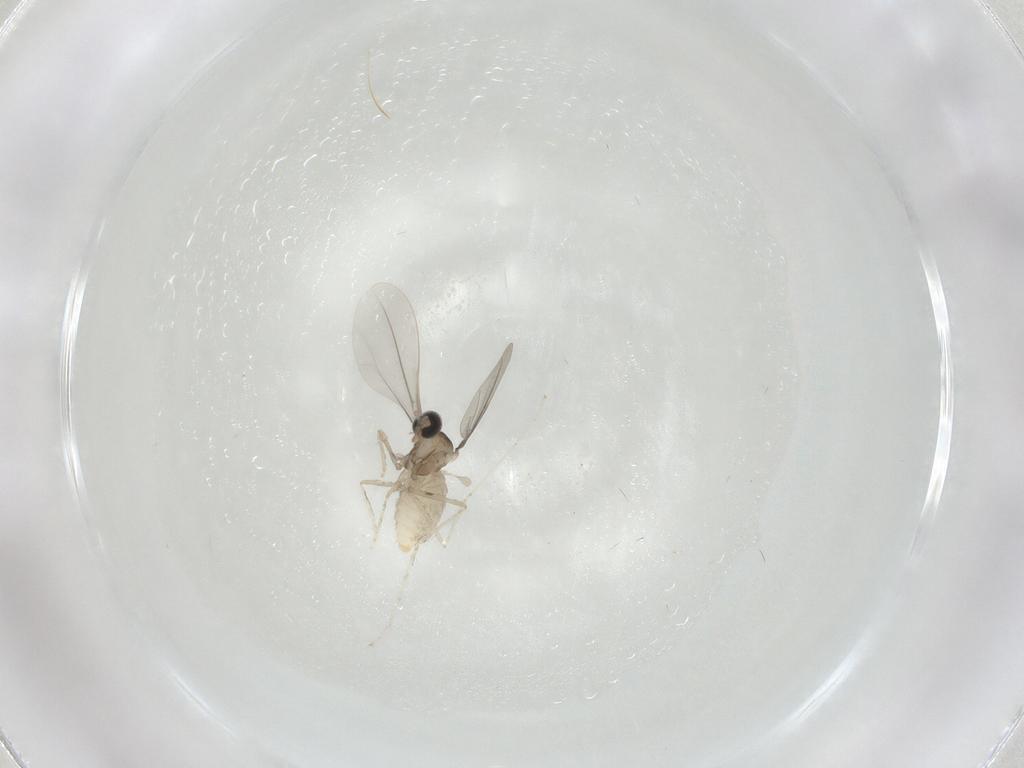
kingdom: Animalia
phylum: Arthropoda
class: Insecta
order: Diptera
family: Cecidomyiidae
